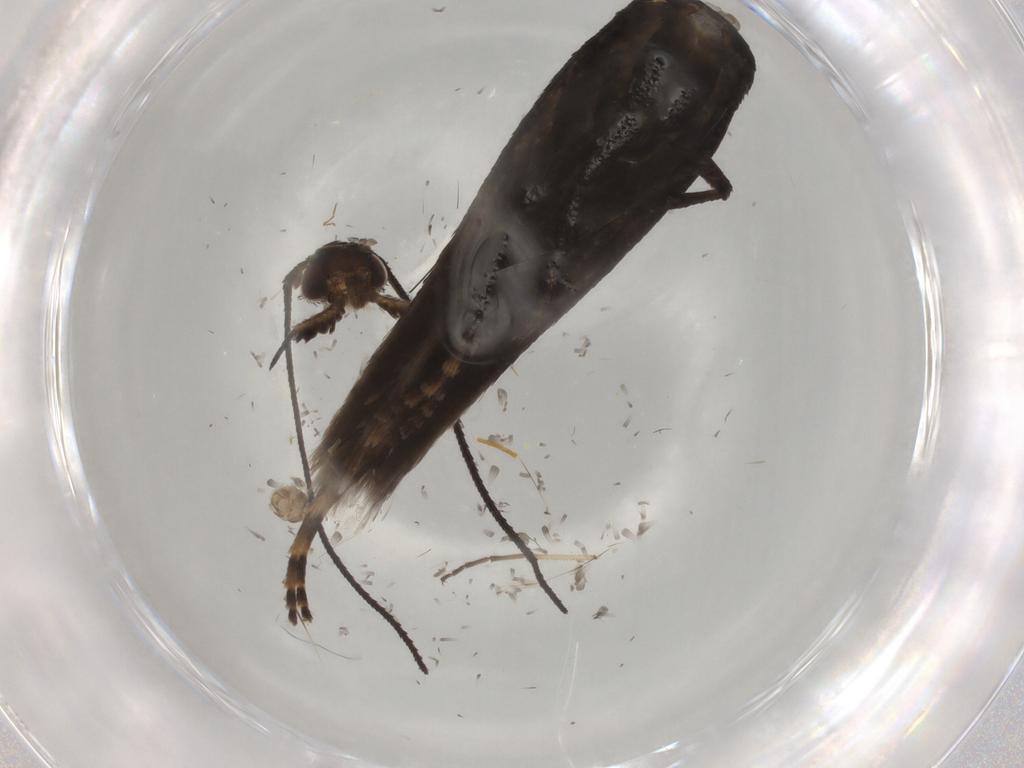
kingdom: Animalia
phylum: Arthropoda
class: Insecta
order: Lepidoptera
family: Gelechiidae
